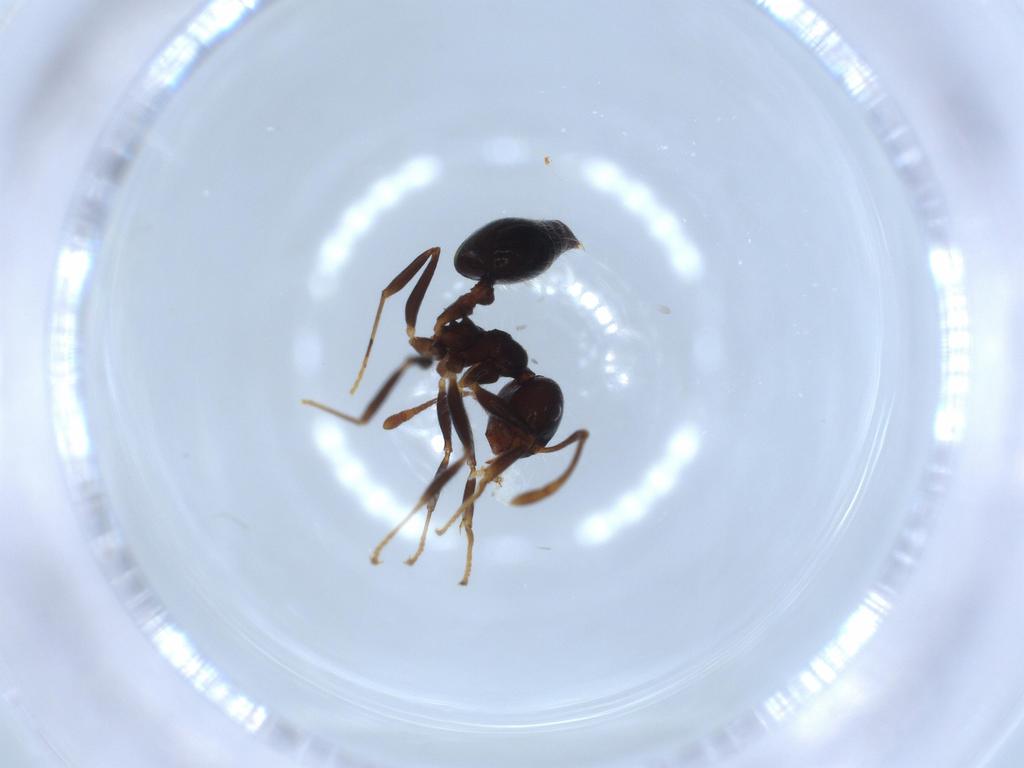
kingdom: Animalia
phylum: Arthropoda
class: Insecta
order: Hymenoptera
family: Formicidae
